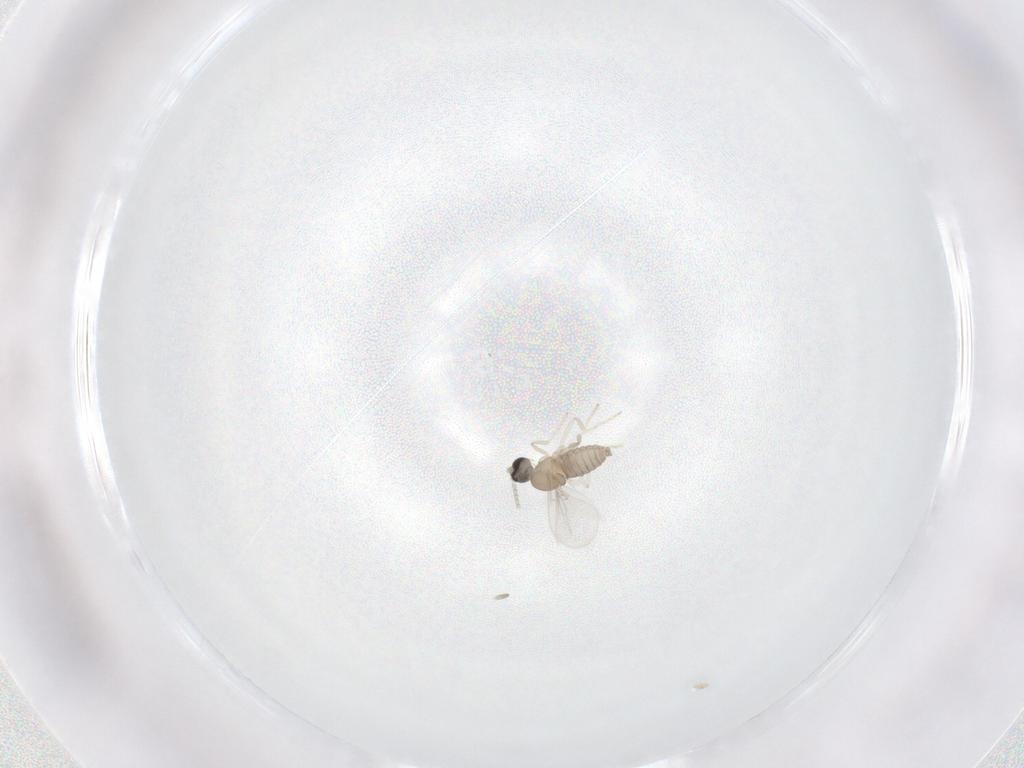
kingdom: Animalia
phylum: Arthropoda
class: Insecta
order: Diptera
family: Cecidomyiidae
